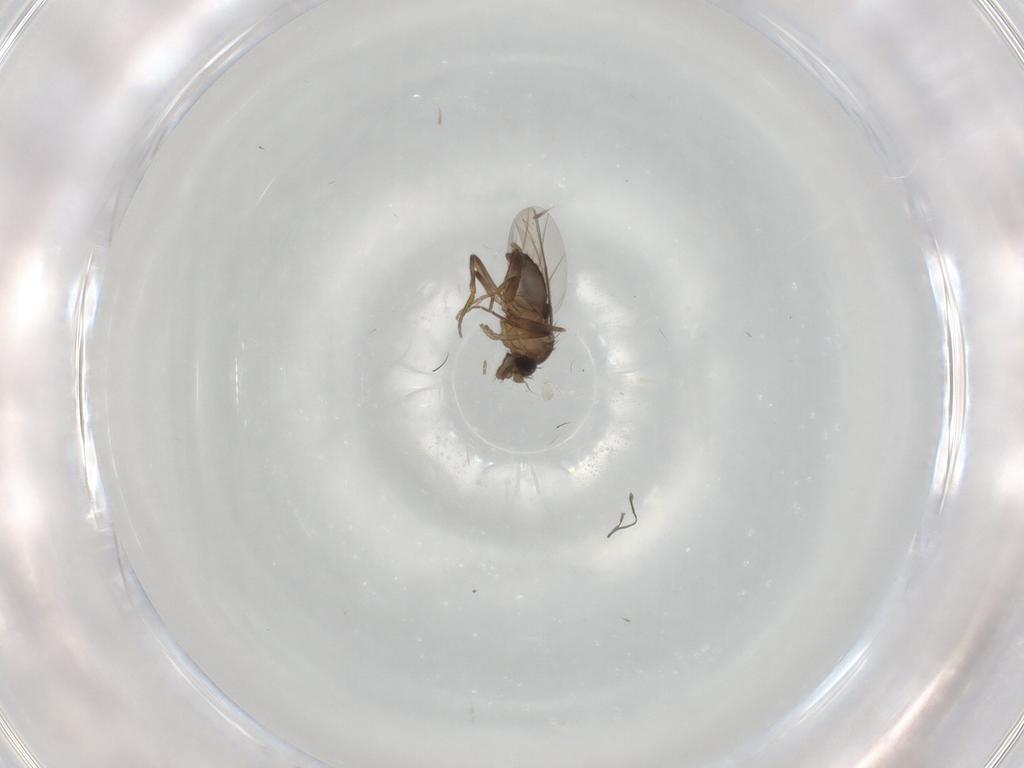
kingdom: Animalia
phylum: Arthropoda
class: Insecta
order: Diptera
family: Phoridae
